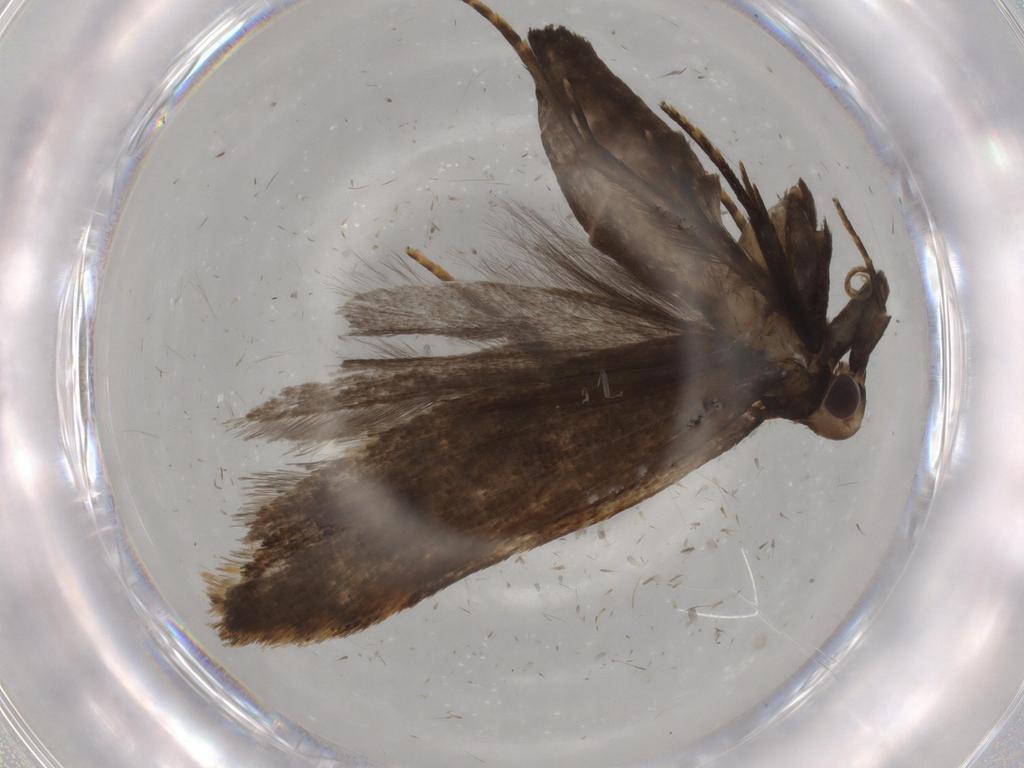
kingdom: Animalia
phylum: Arthropoda
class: Insecta
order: Lepidoptera
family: Gelechiidae
